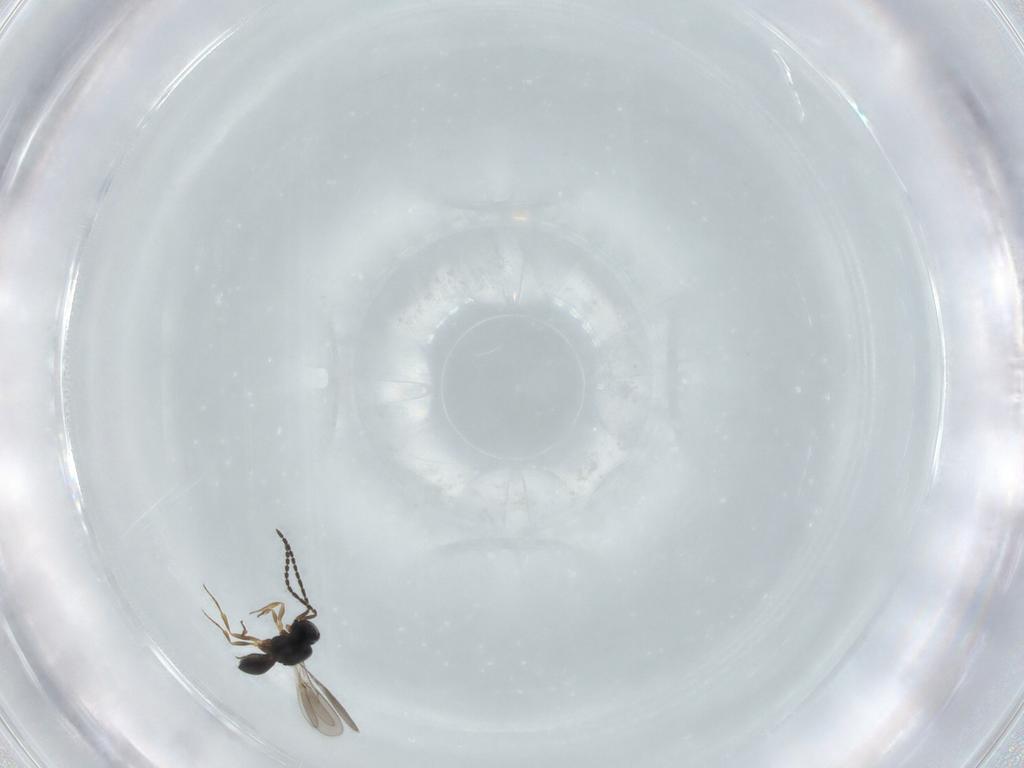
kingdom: Animalia
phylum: Arthropoda
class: Insecta
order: Hymenoptera
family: Scelionidae
